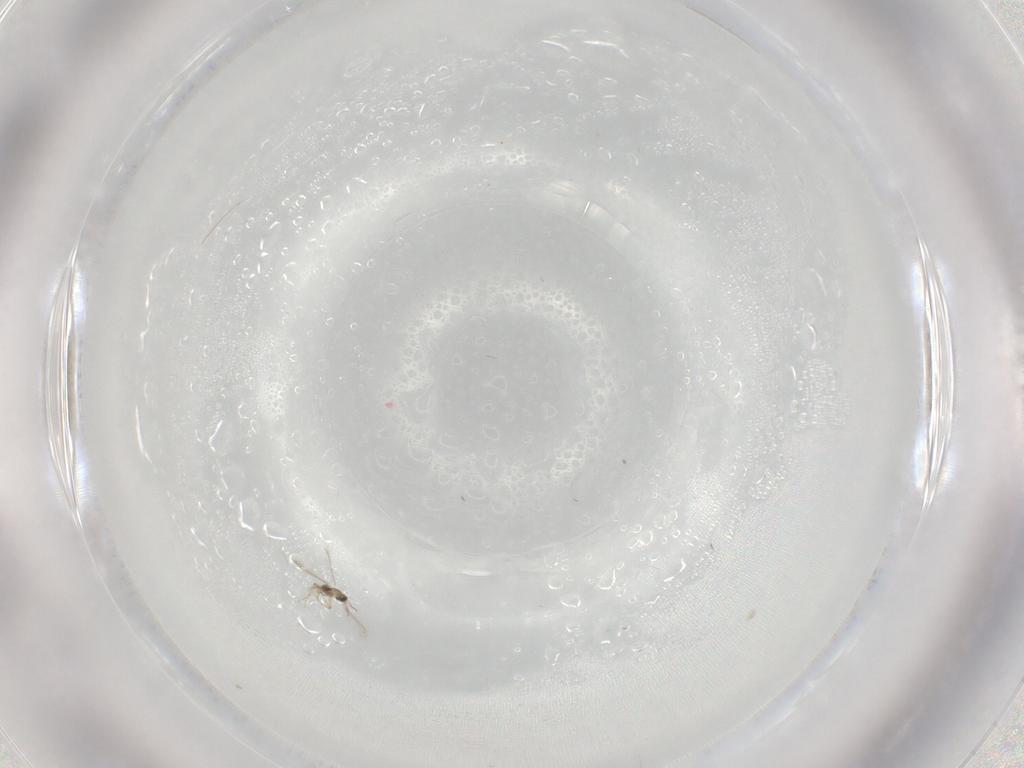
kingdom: Animalia
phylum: Arthropoda
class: Insecta
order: Hymenoptera
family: Mymaridae
